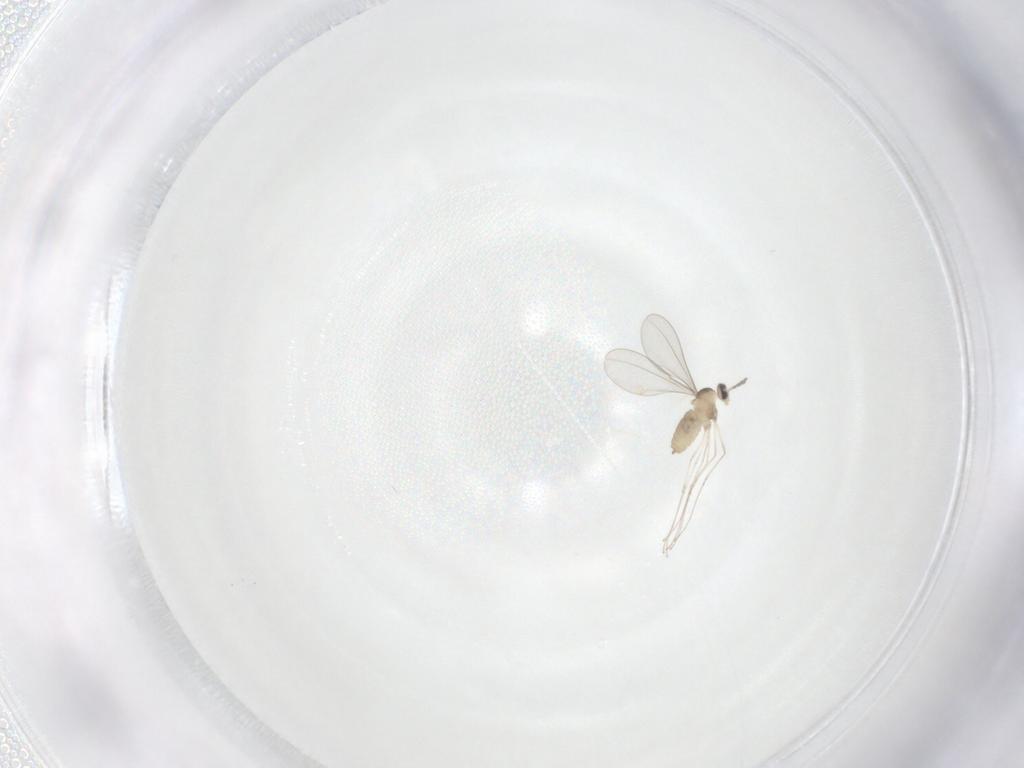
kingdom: Animalia
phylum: Arthropoda
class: Insecta
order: Diptera
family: Cecidomyiidae
